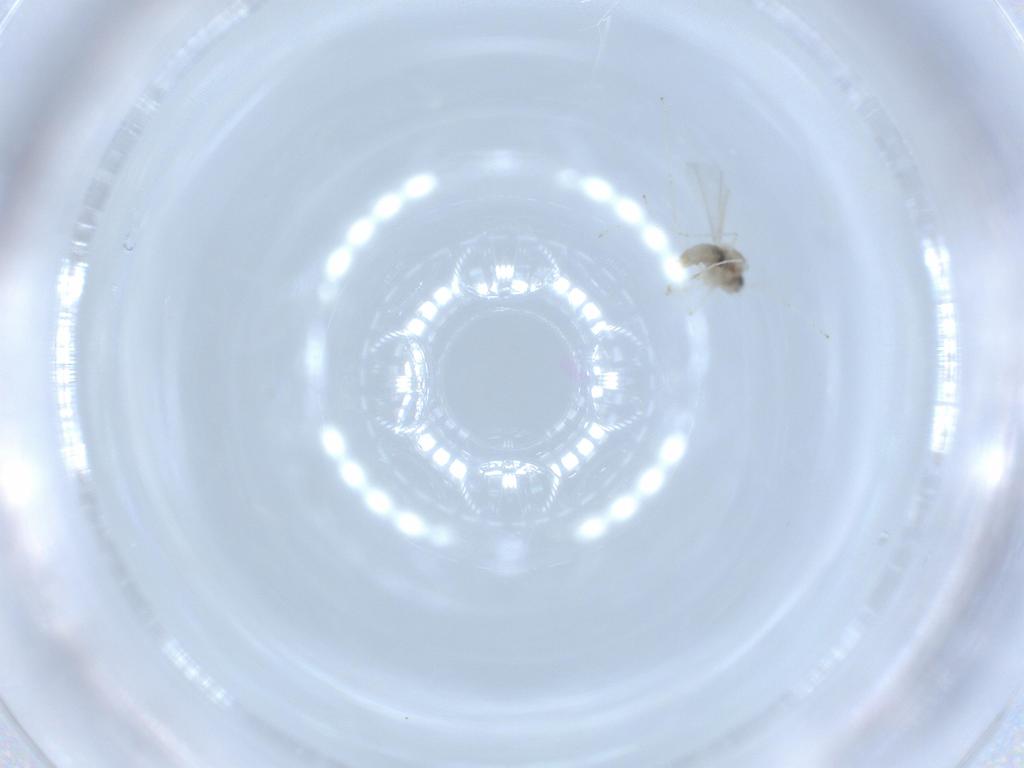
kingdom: Animalia
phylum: Arthropoda
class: Insecta
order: Diptera
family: Cecidomyiidae
